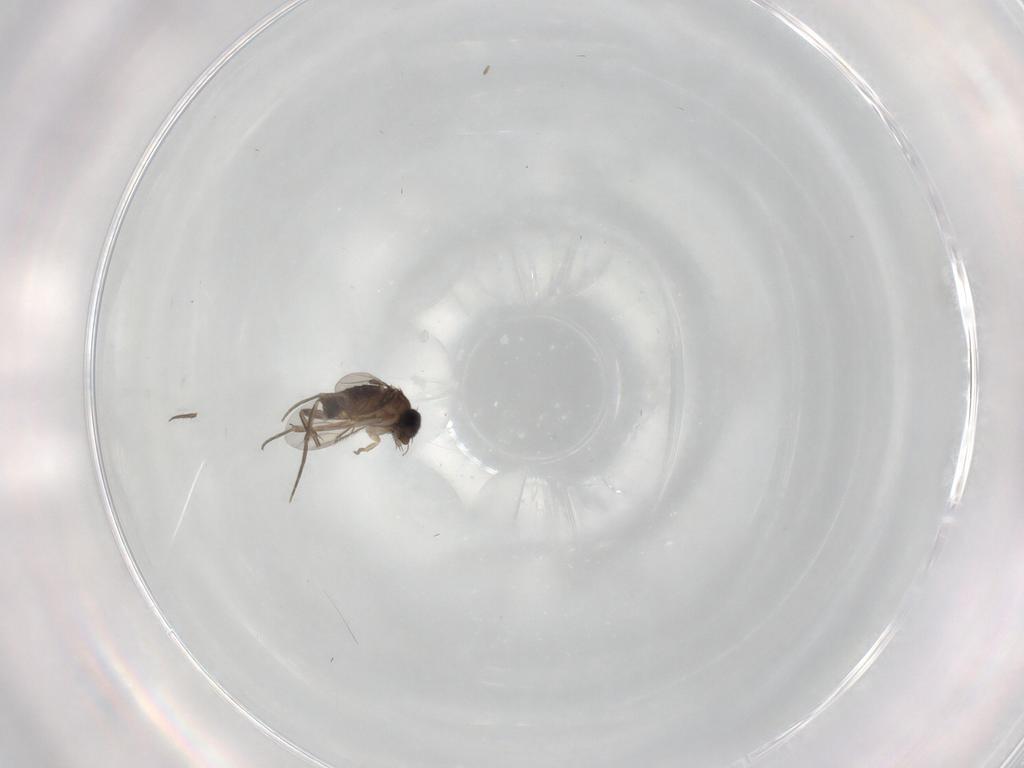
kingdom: Animalia
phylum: Arthropoda
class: Insecta
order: Diptera
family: Phoridae
